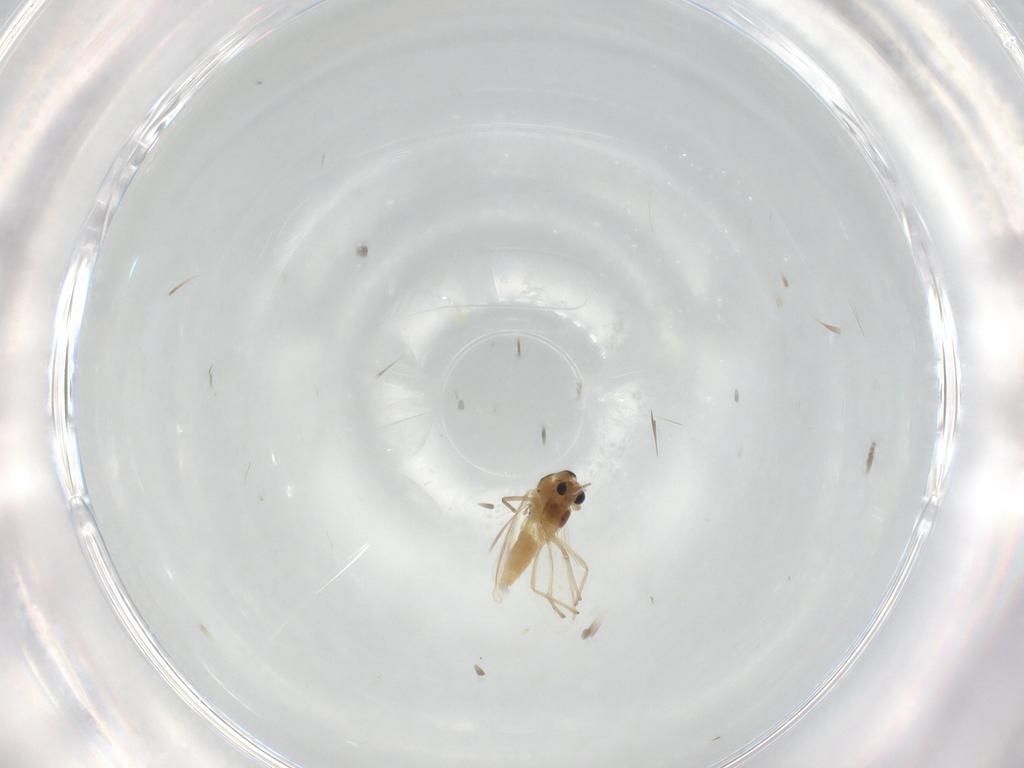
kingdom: Animalia
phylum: Arthropoda
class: Insecta
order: Diptera
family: Chironomidae
